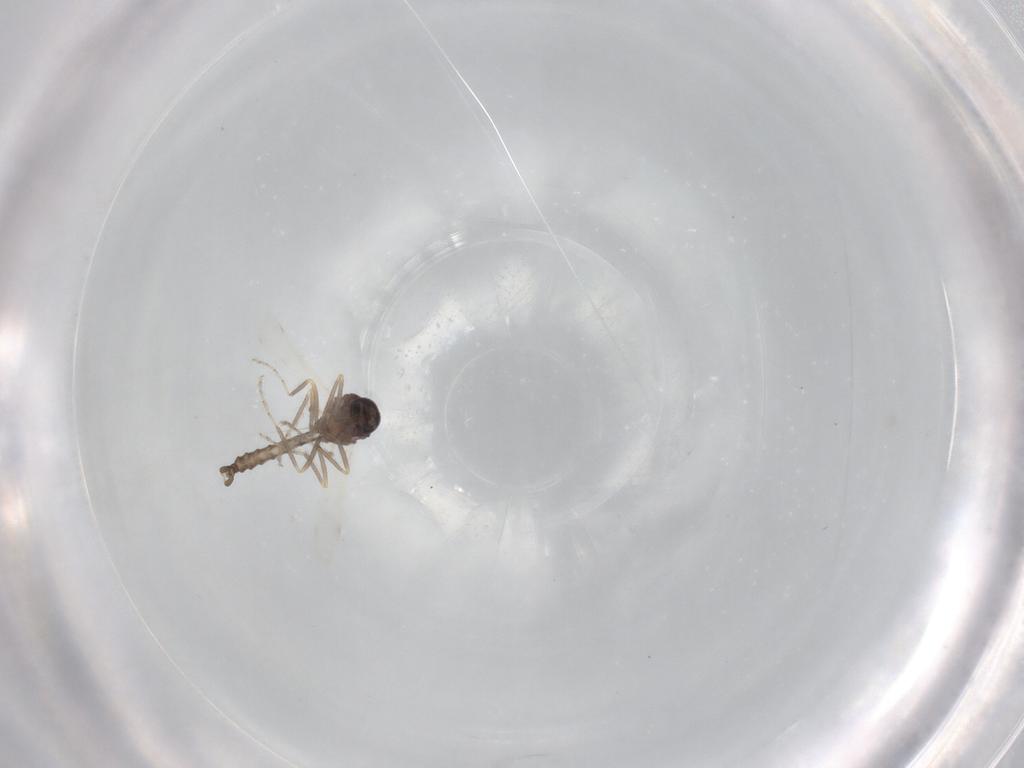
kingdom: Animalia
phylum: Arthropoda
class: Insecta
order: Diptera
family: Ceratopogonidae
